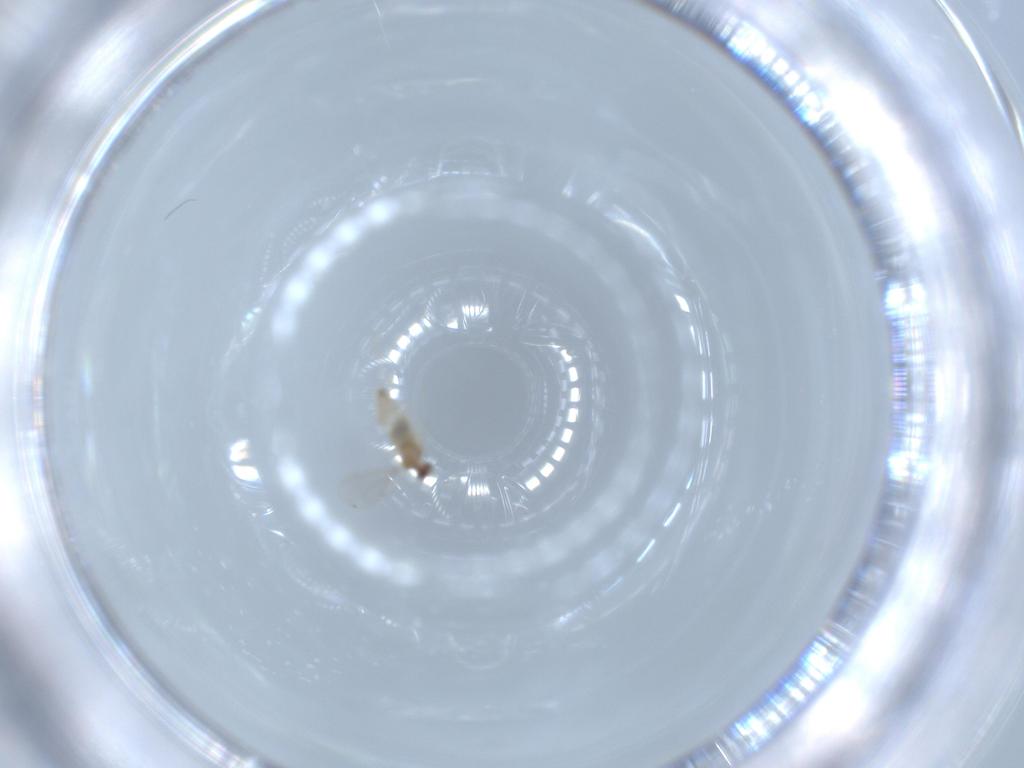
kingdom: Animalia
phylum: Arthropoda
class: Insecta
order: Diptera
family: Cecidomyiidae
